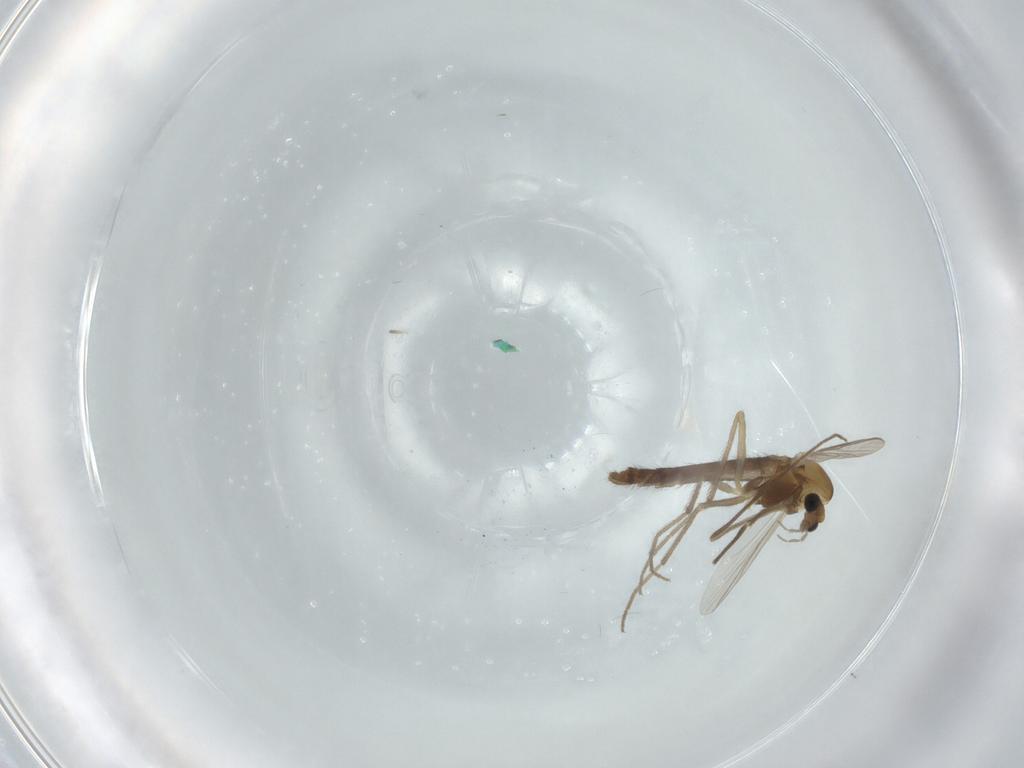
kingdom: Animalia
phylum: Arthropoda
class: Insecta
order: Diptera
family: Chironomidae
